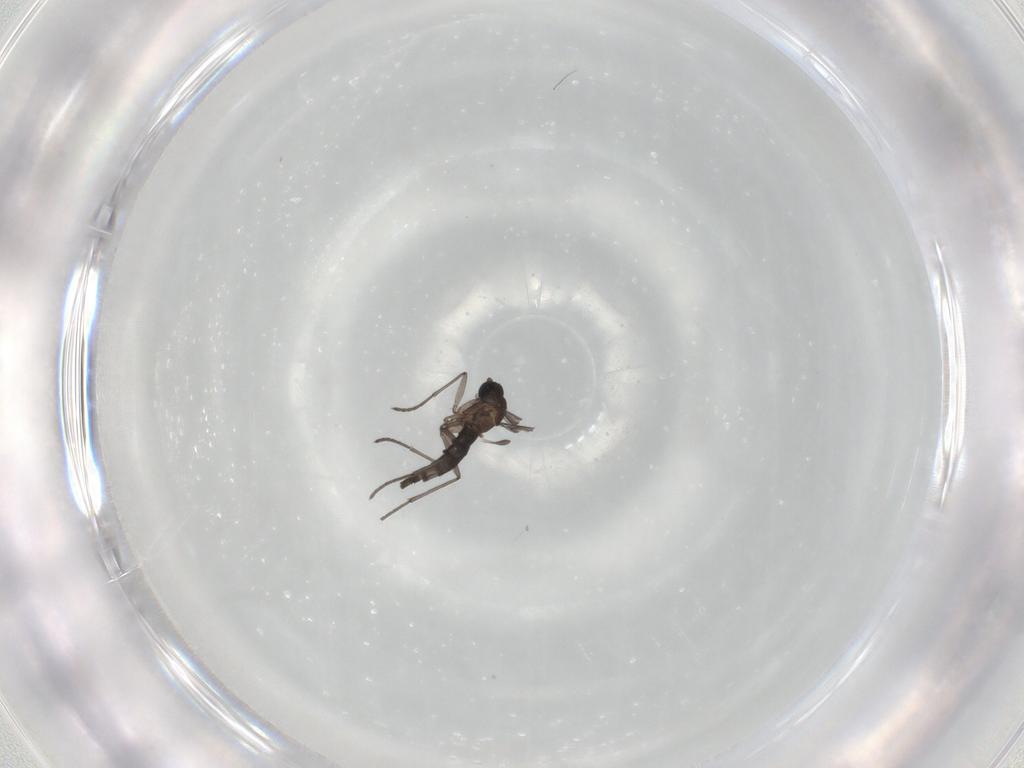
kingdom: Animalia
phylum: Arthropoda
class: Insecta
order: Diptera
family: Sciaridae
